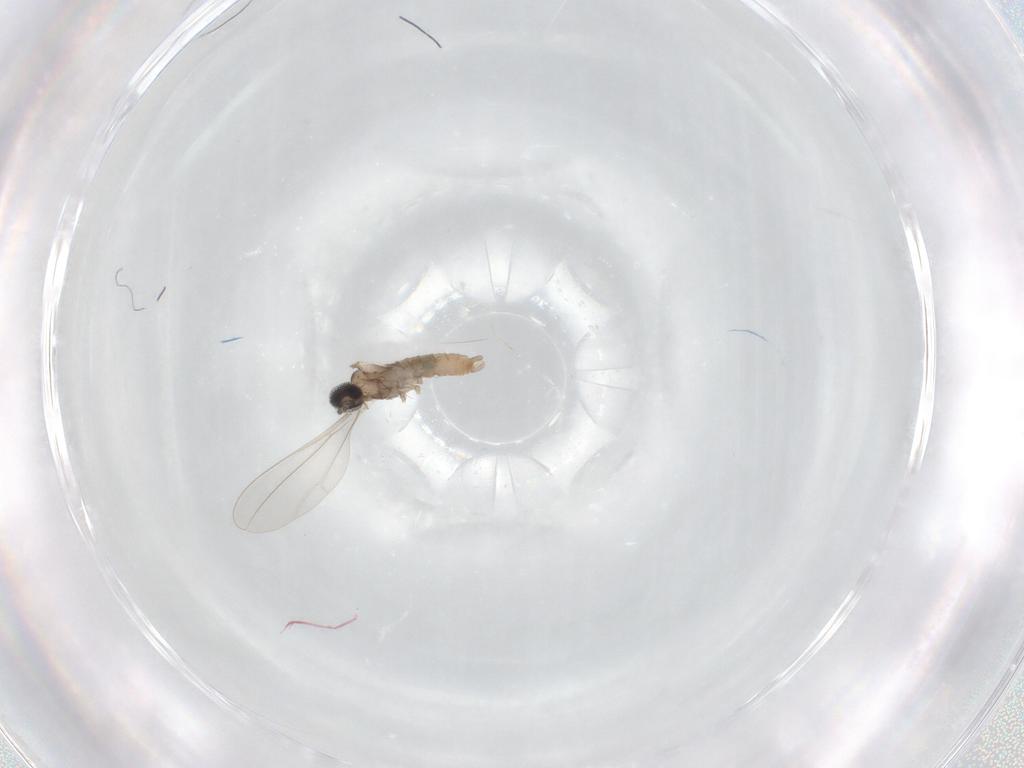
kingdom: Animalia
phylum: Arthropoda
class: Insecta
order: Diptera
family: Cecidomyiidae
